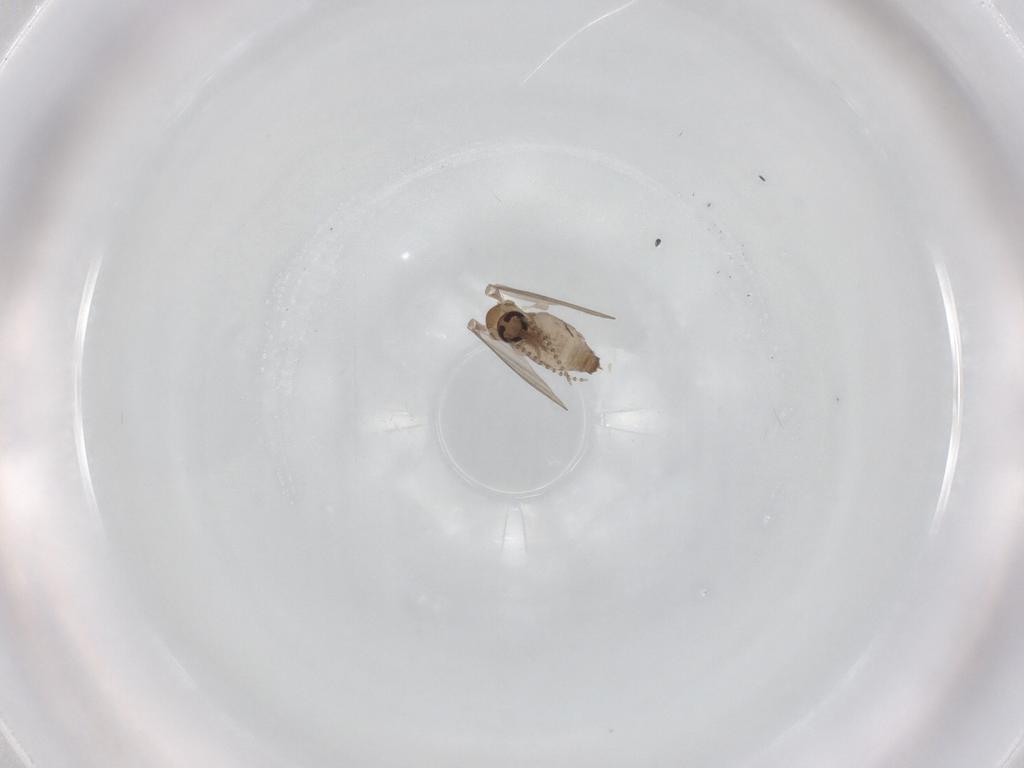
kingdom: Animalia
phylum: Arthropoda
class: Insecta
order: Diptera
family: Psychodidae
